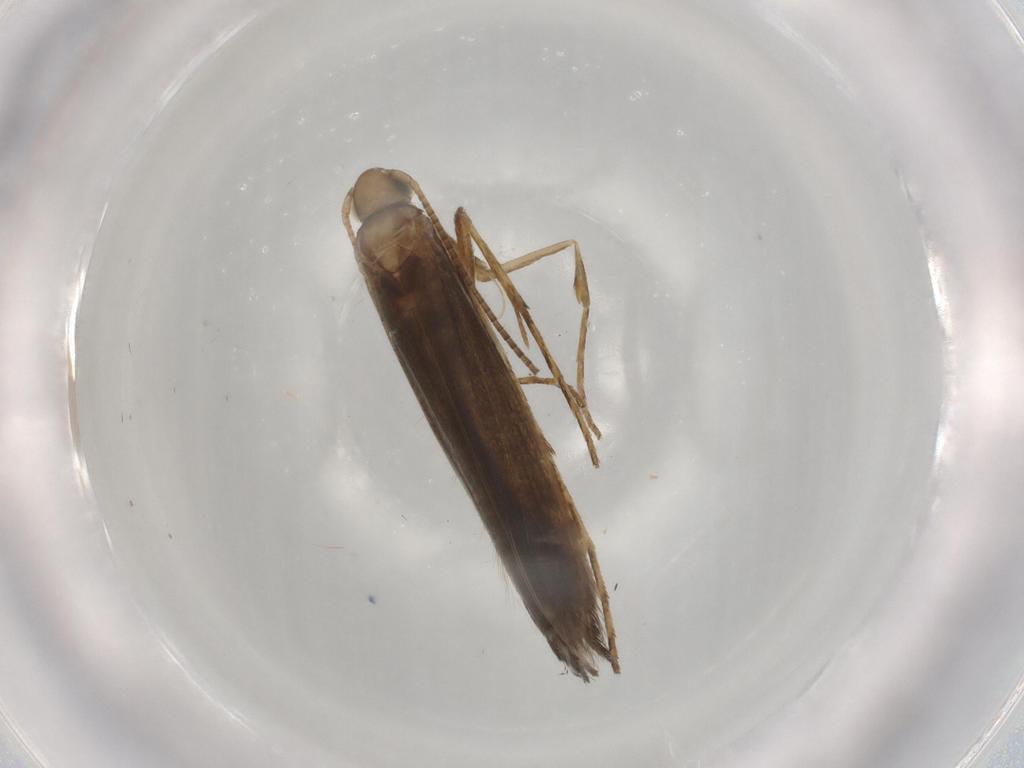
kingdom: Animalia
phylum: Arthropoda
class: Insecta
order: Lepidoptera
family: Gracillariidae
